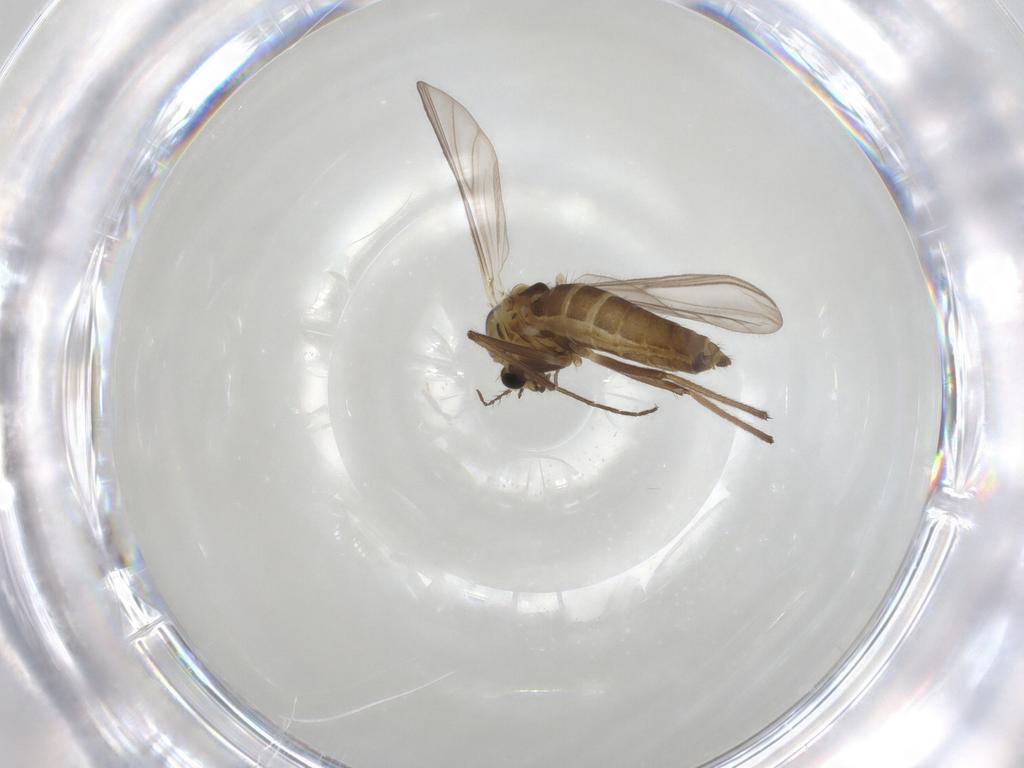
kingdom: Animalia
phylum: Arthropoda
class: Insecta
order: Diptera
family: Chironomidae
